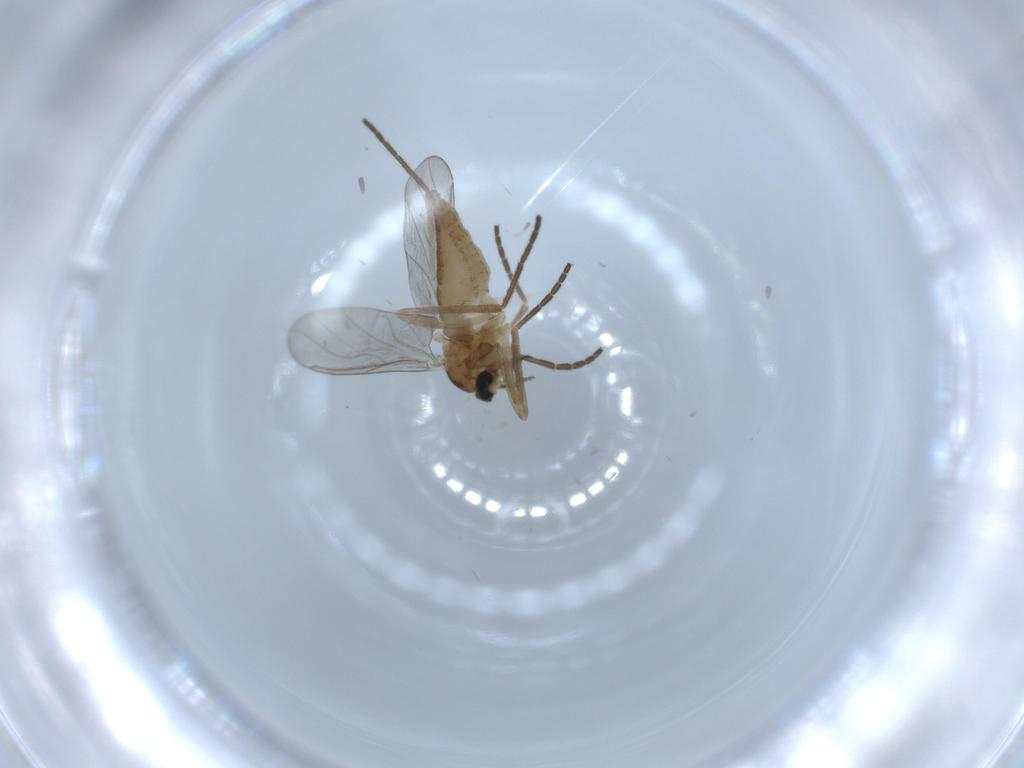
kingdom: Animalia
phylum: Arthropoda
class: Insecta
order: Diptera
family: Cecidomyiidae
